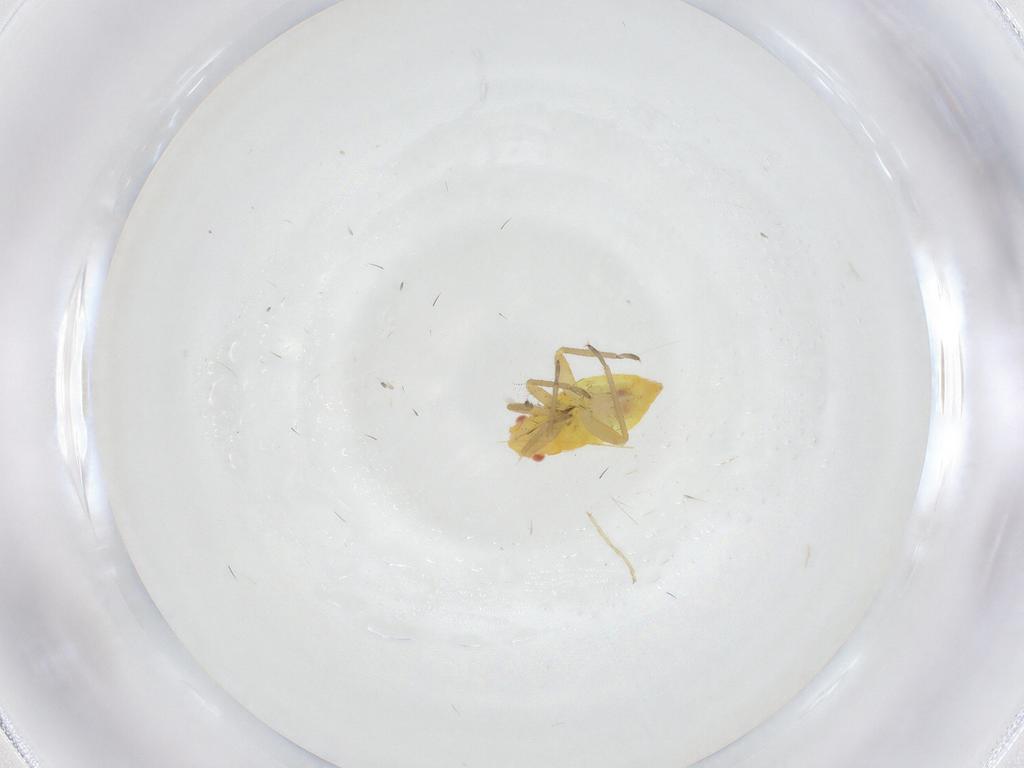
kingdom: Animalia
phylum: Arthropoda
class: Insecta
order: Hemiptera
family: Miridae
